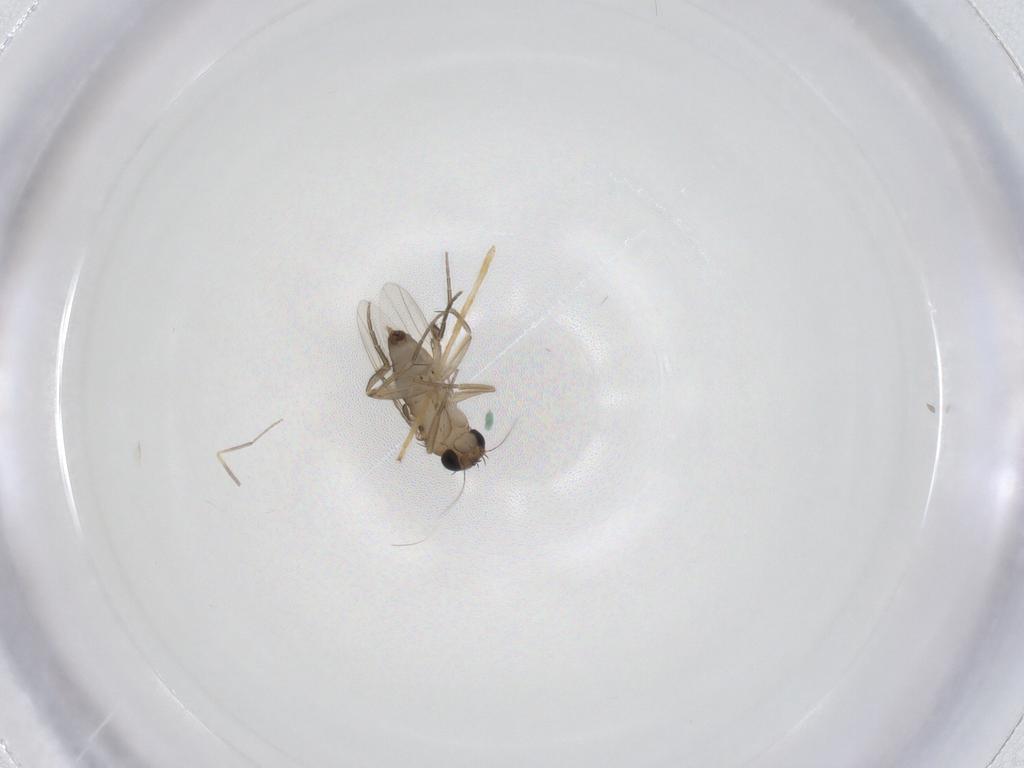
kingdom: Animalia
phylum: Arthropoda
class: Insecta
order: Diptera
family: Phoridae
